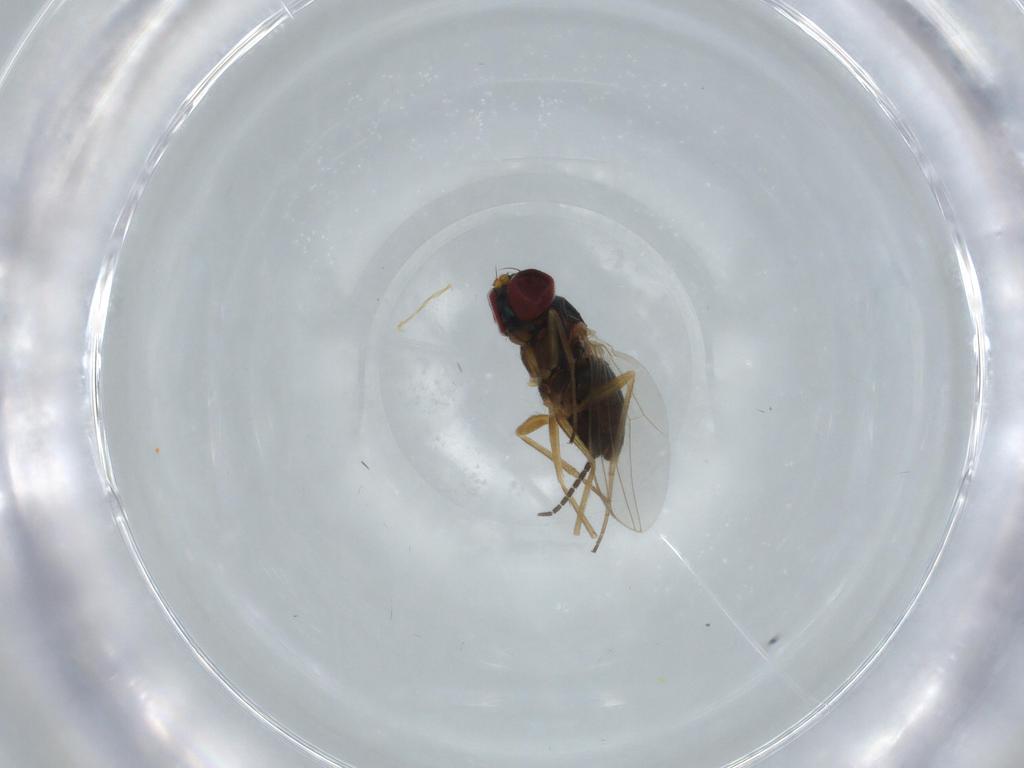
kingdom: Animalia
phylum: Arthropoda
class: Insecta
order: Diptera
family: Dolichopodidae
